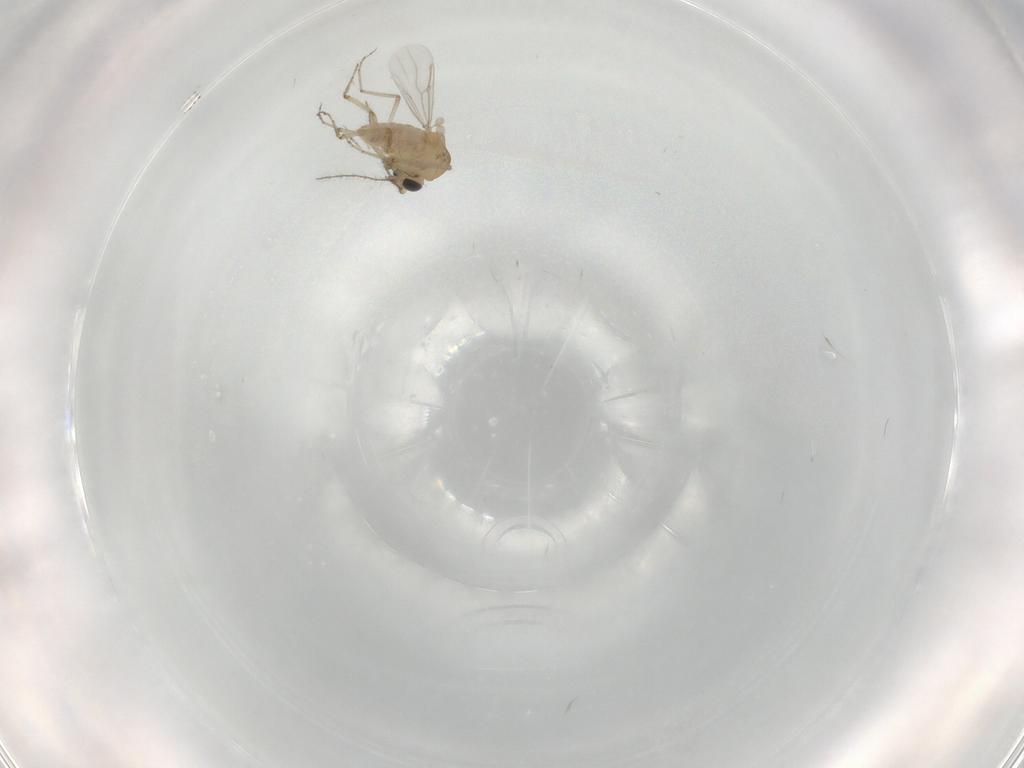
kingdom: Animalia
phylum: Arthropoda
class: Insecta
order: Diptera
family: Ceratopogonidae
